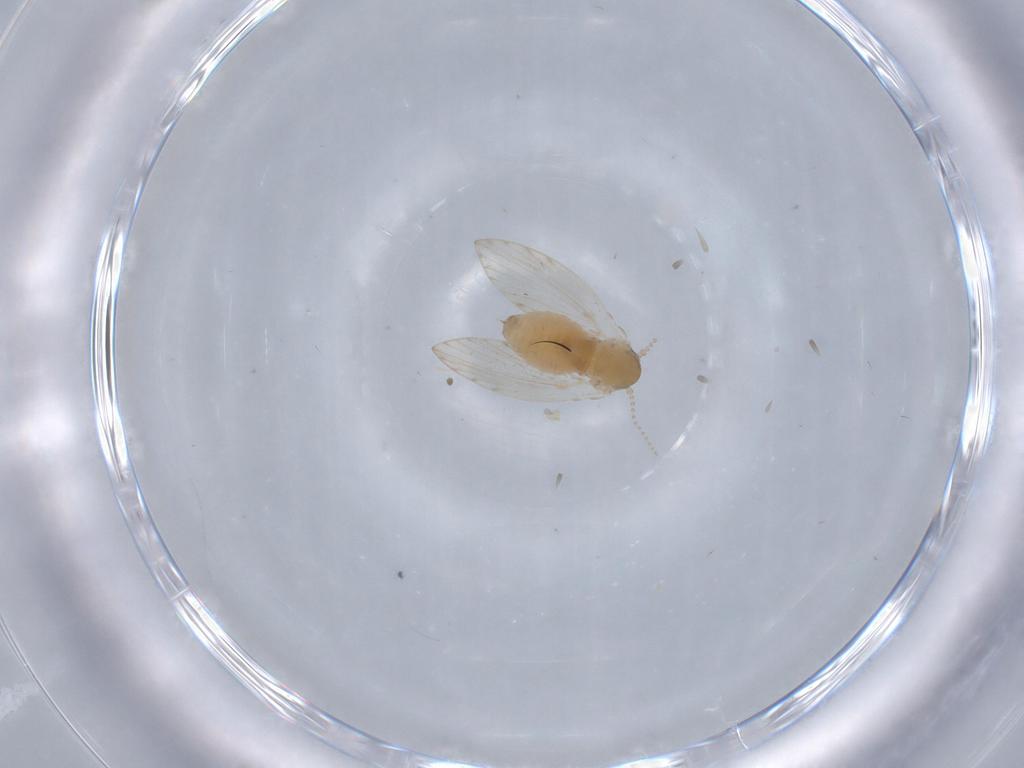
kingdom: Animalia
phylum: Arthropoda
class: Insecta
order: Diptera
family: Psychodidae
